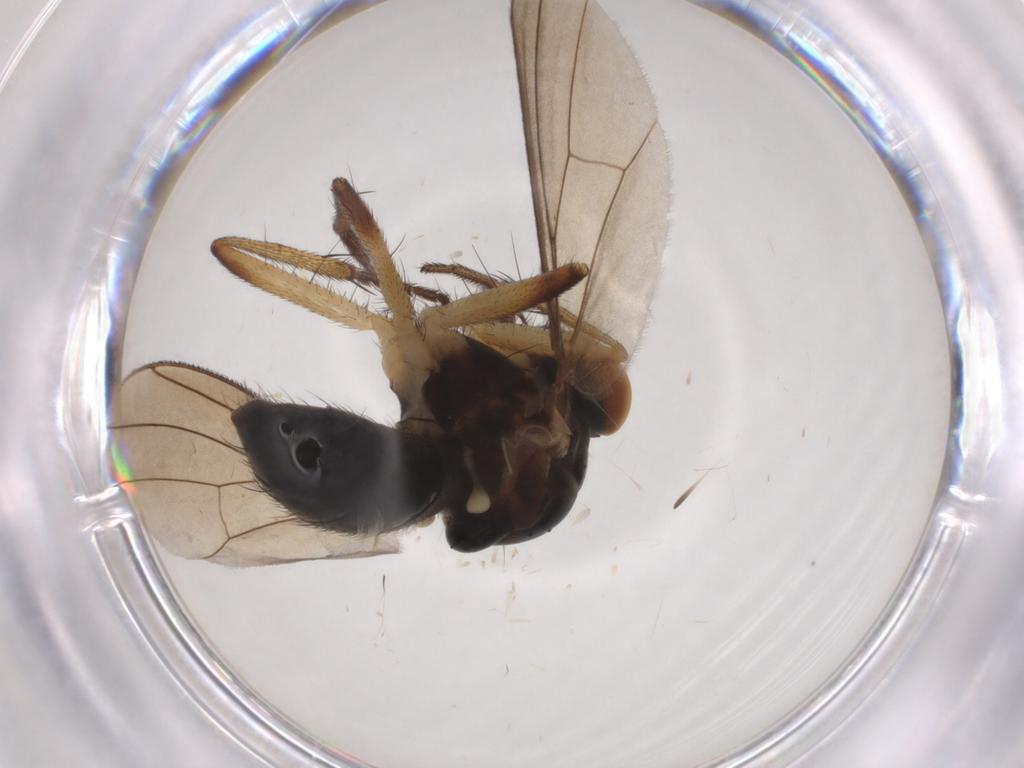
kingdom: Animalia
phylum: Arthropoda
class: Insecta
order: Diptera
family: Muscidae
